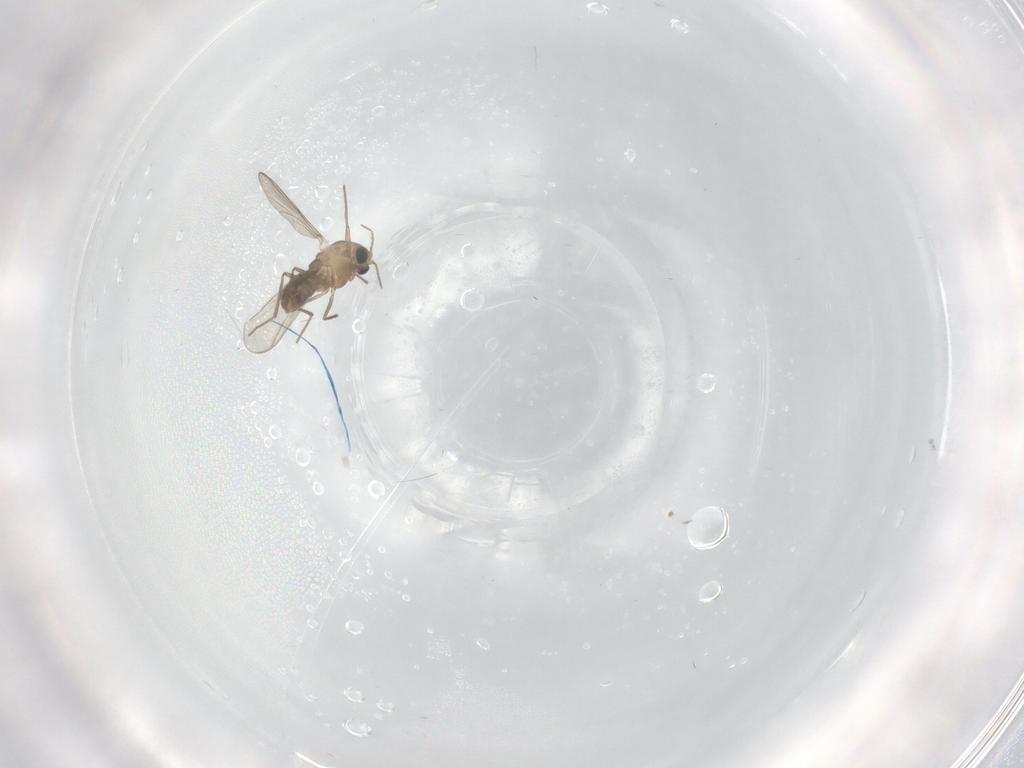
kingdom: Animalia
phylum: Arthropoda
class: Insecta
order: Diptera
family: Chironomidae
